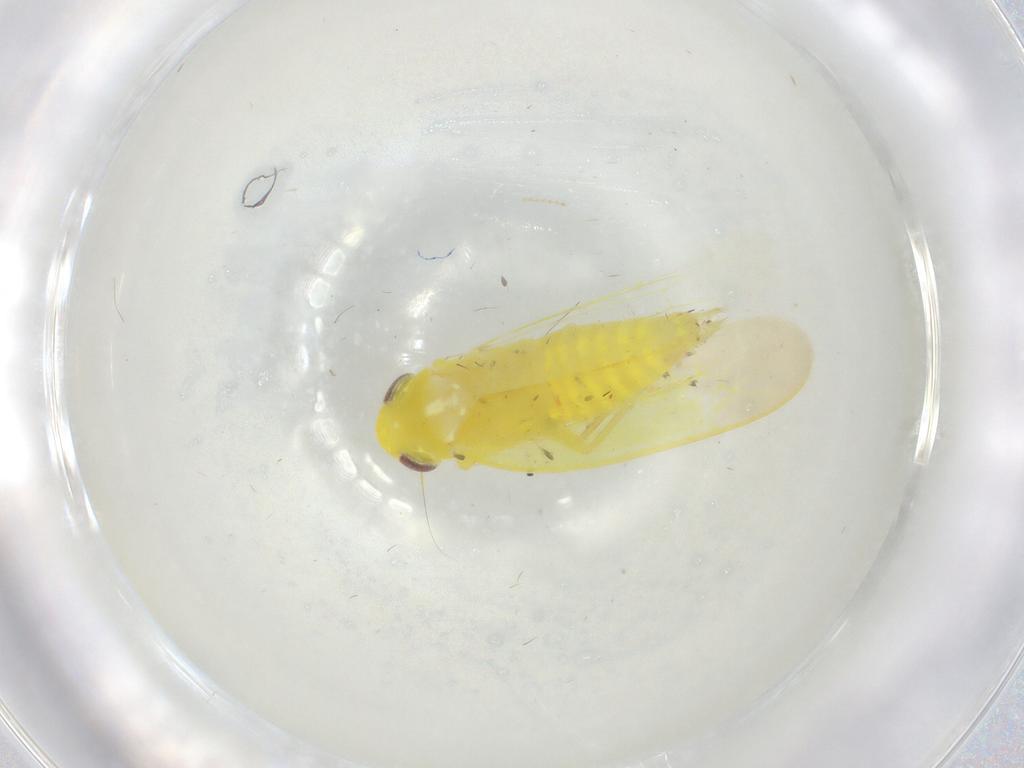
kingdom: Animalia
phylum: Arthropoda
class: Insecta
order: Hemiptera
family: Cicadellidae
